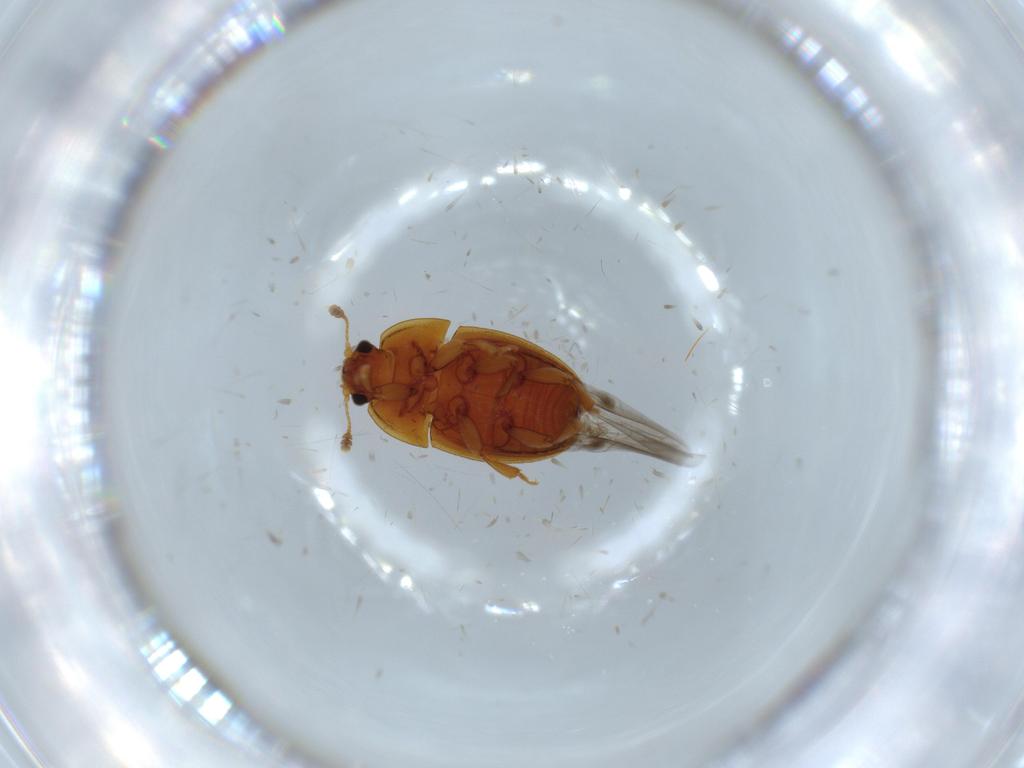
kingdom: Animalia
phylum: Arthropoda
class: Insecta
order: Coleoptera
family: Nitidulidae
